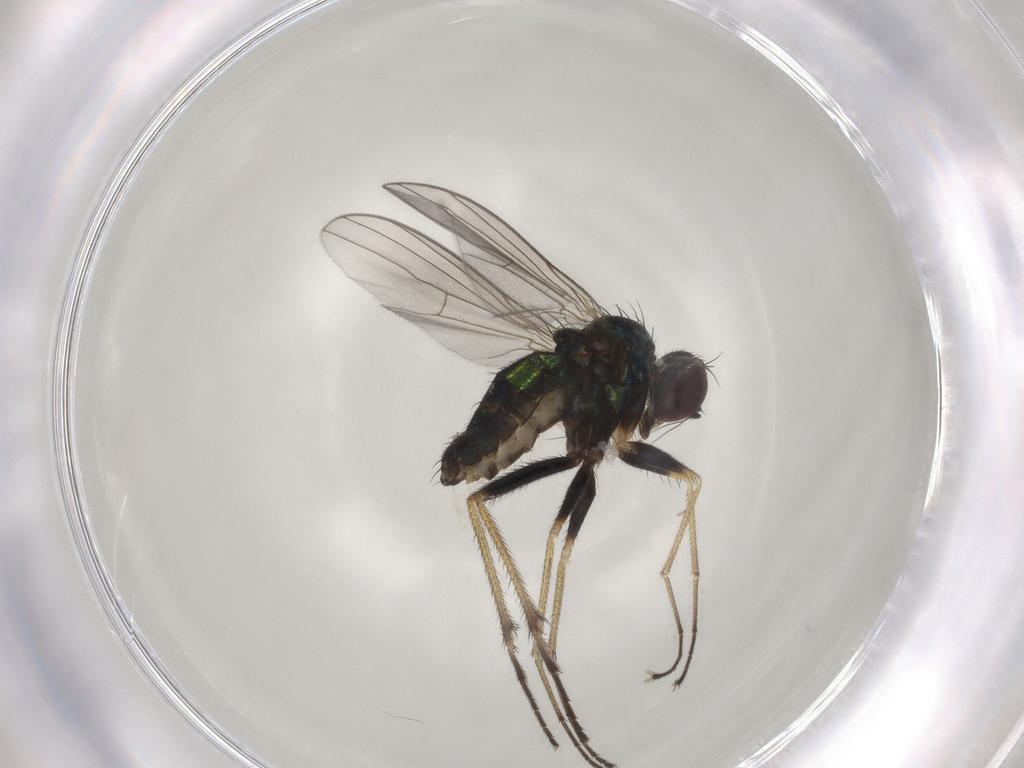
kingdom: Animalia
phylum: Arthropoda
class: Insecta
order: Diptera
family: Dolichopodidae
